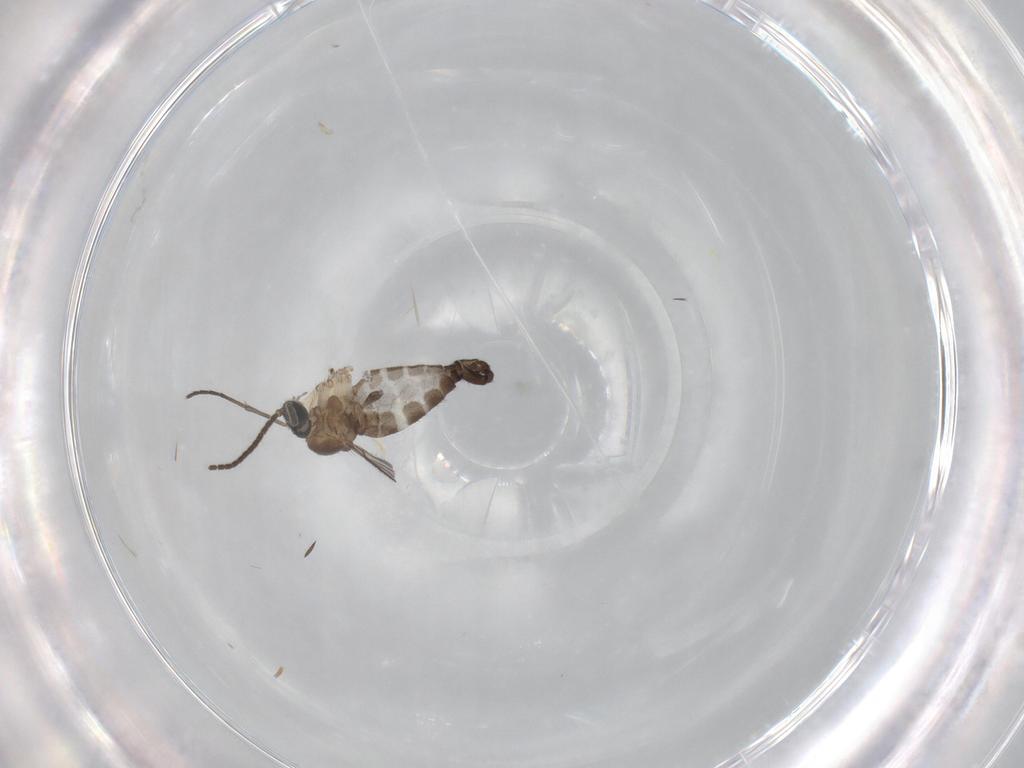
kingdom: Animalia
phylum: Arthropoda
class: Insecta
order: Diptera
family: Sciaridae
